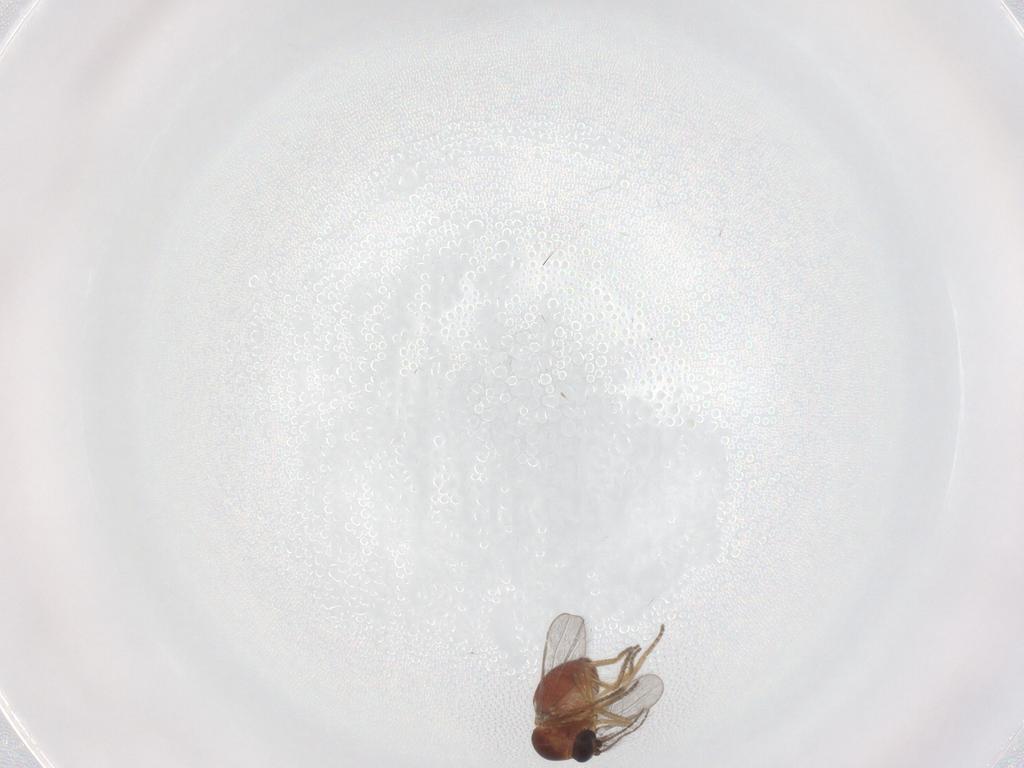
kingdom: Animalia
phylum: Arthropoda
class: Insecta
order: Diptera
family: Ceratopogonidae
